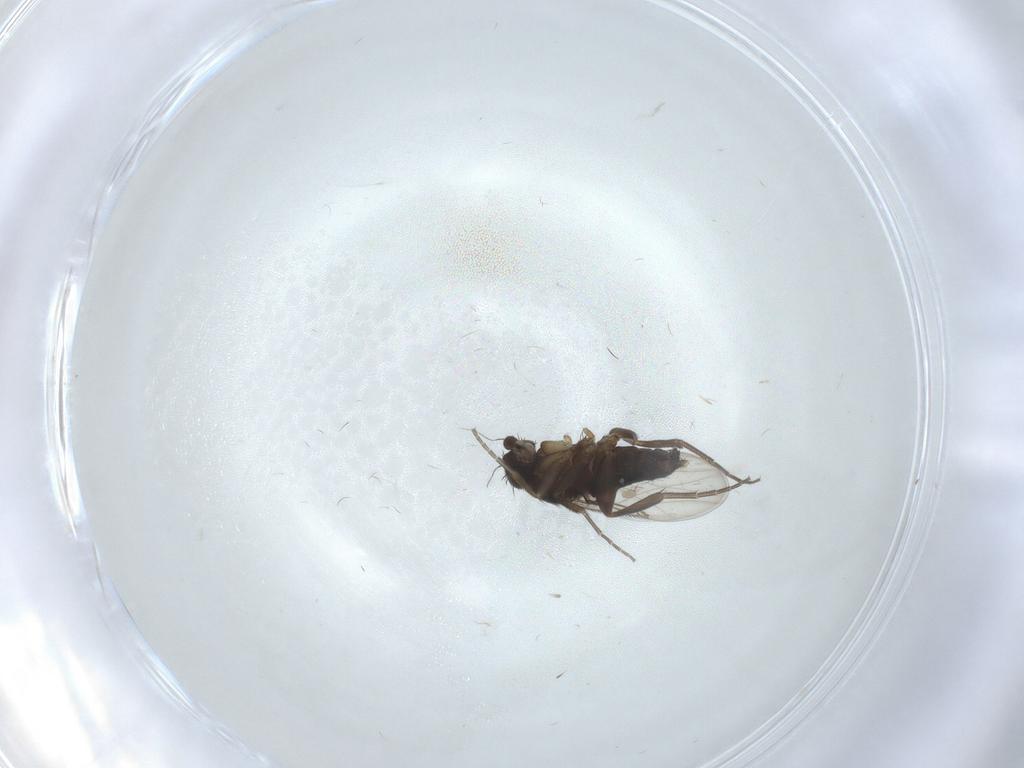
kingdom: Animalia
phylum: Arthropoda
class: Insecta
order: Diptera
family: Phoridae
